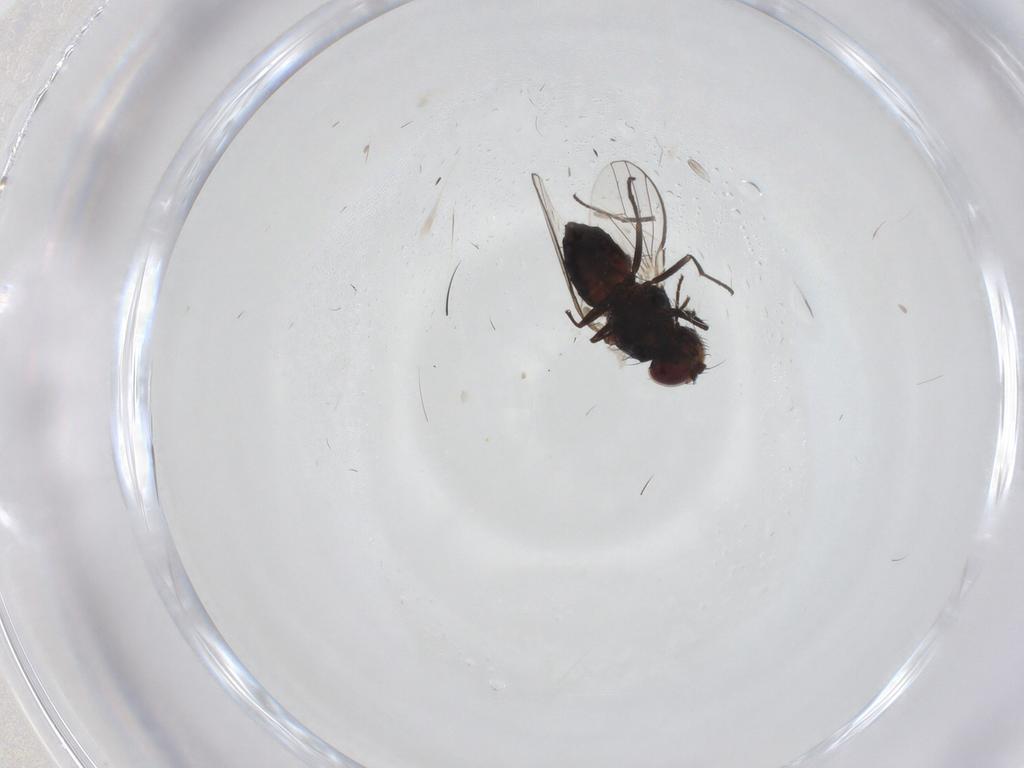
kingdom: Animalia
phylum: Arthropoda
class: Insecta
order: Diptera
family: Carnidae
